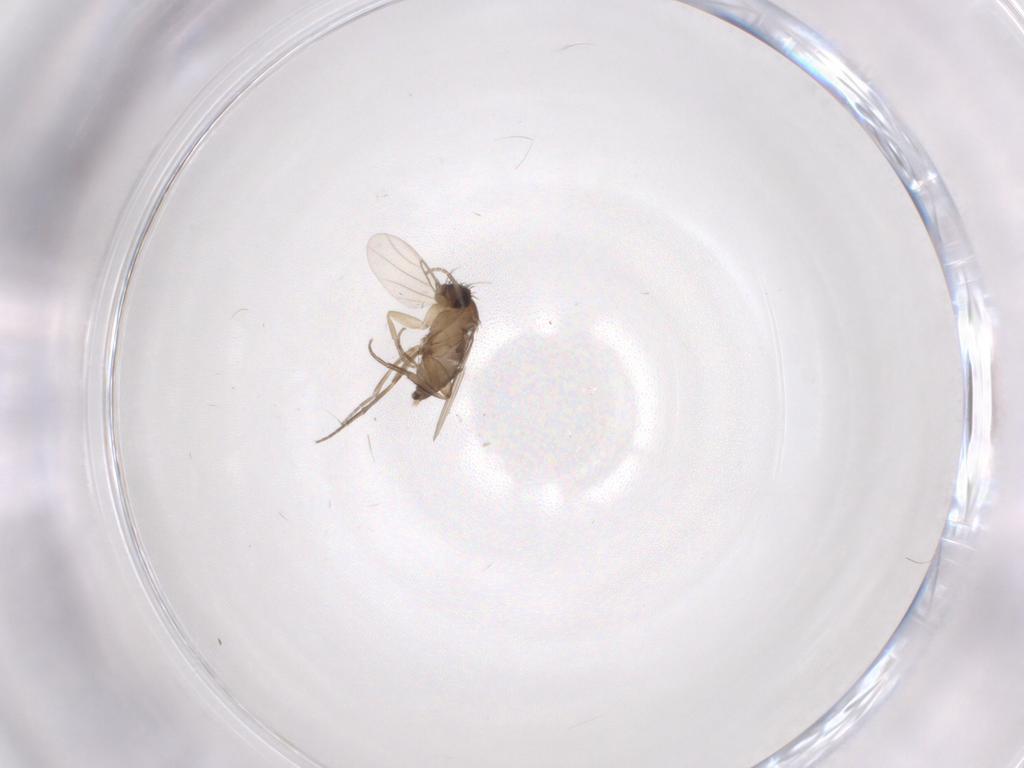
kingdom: Animalia
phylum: Arthropoda
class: Insecta
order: Diptera
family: Phoridae
